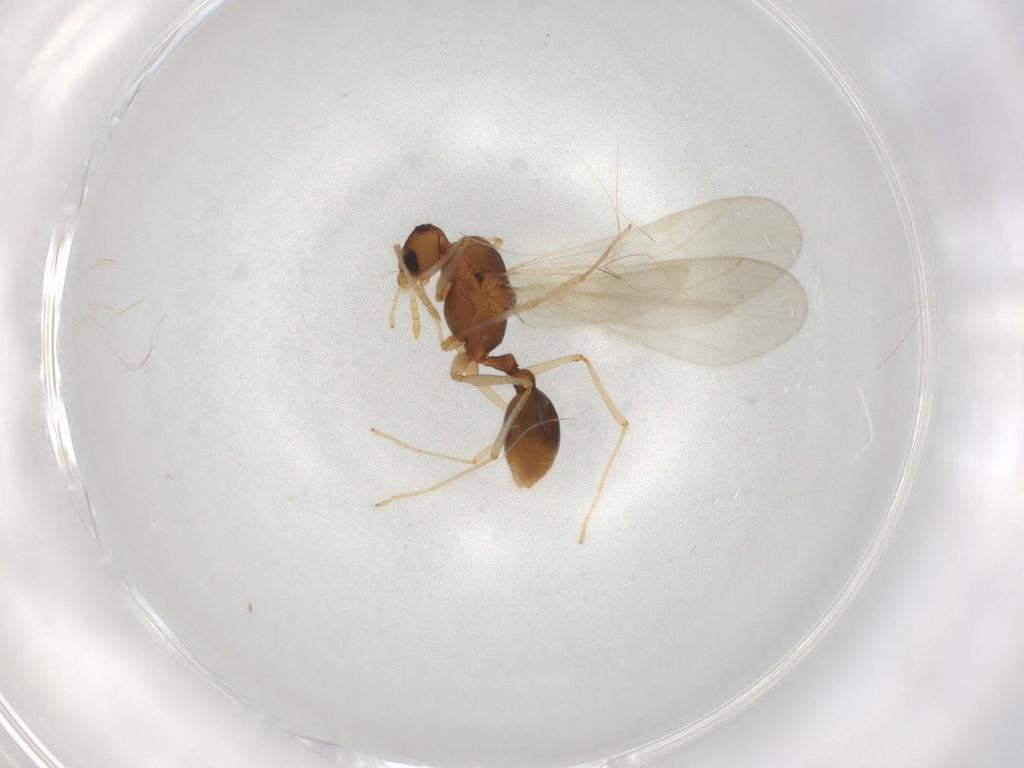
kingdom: Animalia
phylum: Arthropoda
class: Insecta
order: Hymenoptera
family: Formicidae
